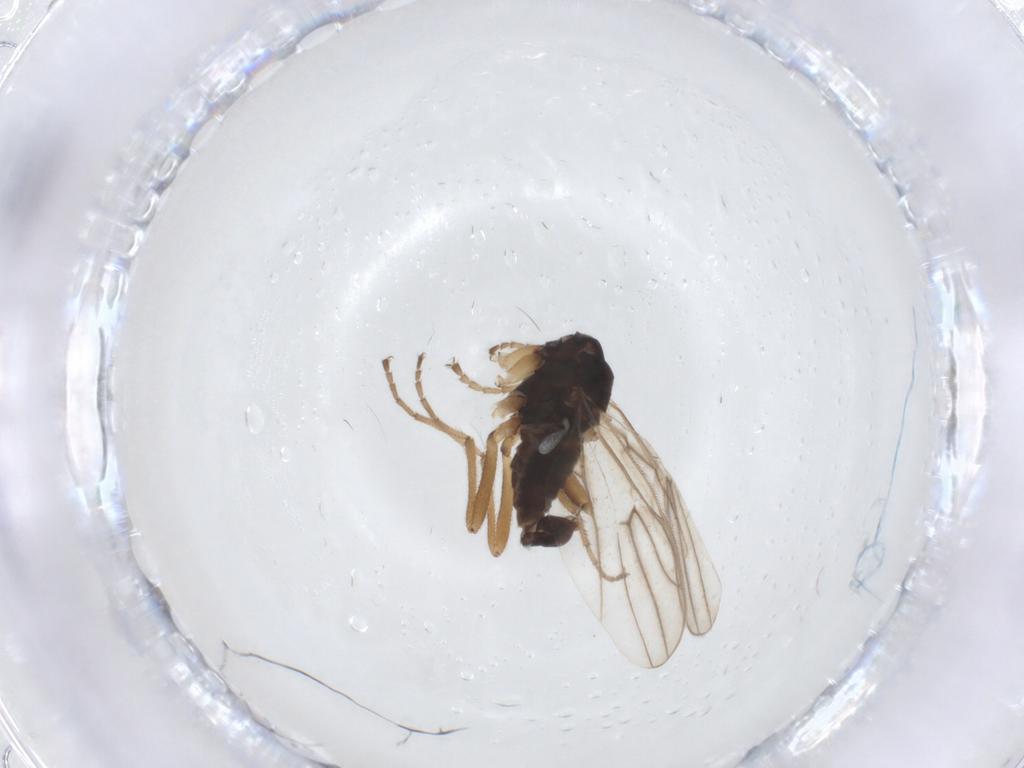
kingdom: Animalia
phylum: Arthropoda
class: Insecta
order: Diptera
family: Hybotidae
